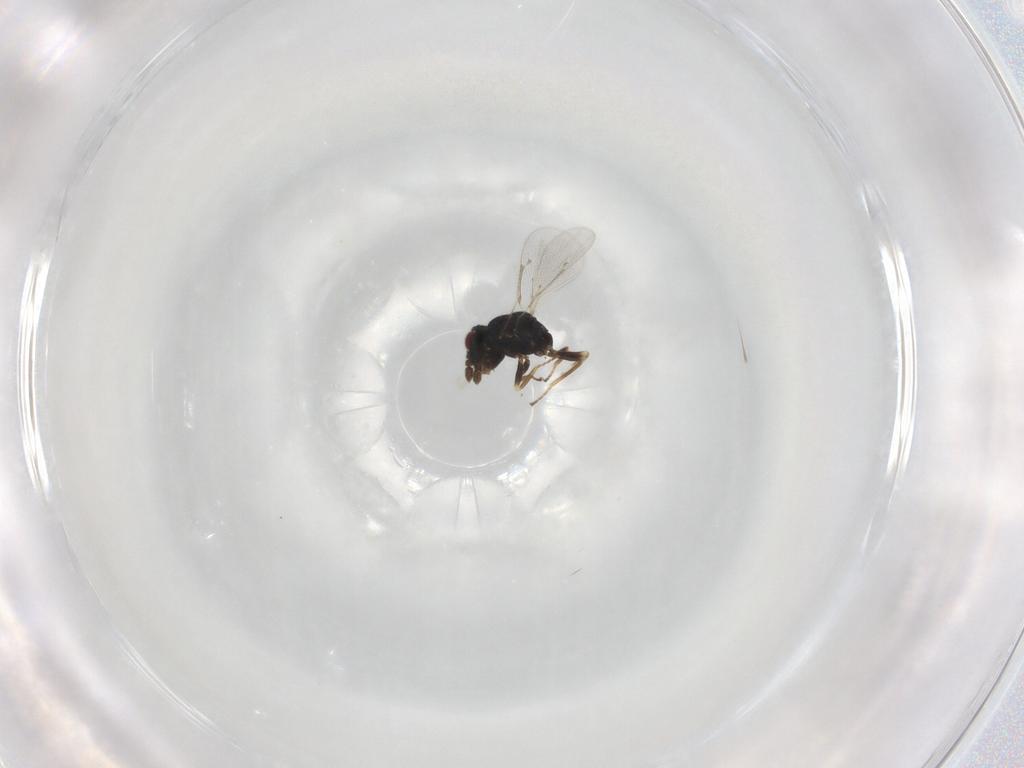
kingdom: Animalia
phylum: Arthropoda
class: Insecta
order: Hymenoptera
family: Eulophidae
